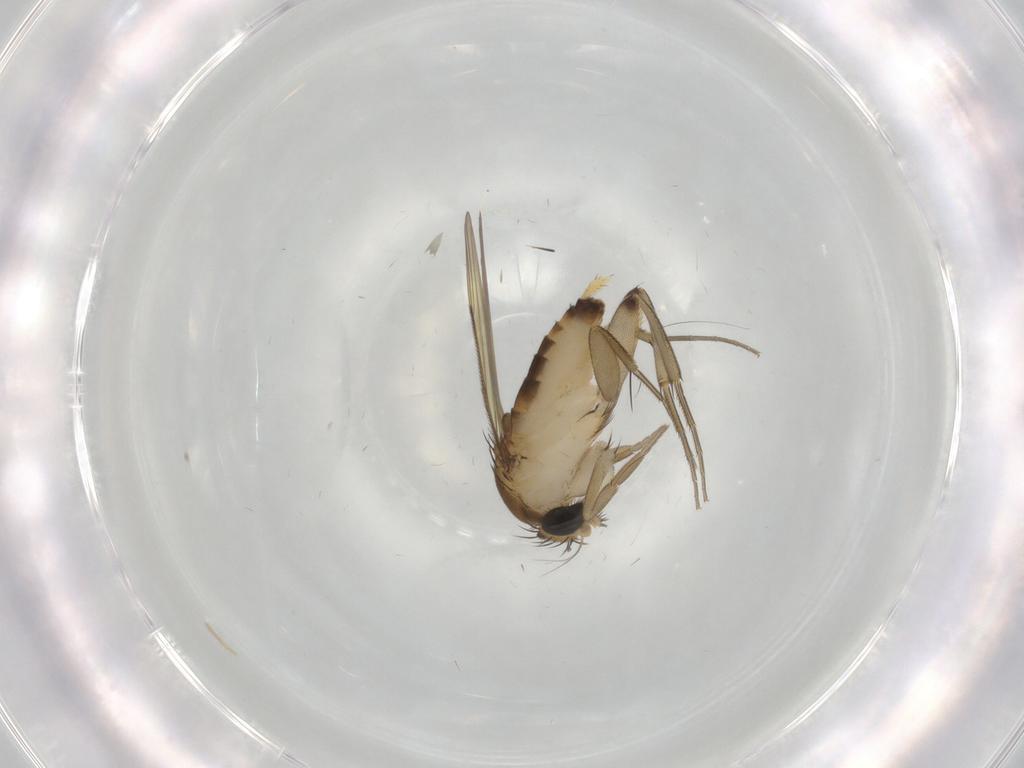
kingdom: Animalia
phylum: Arthropoda
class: Insecta
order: Diptera
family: Phoridae
